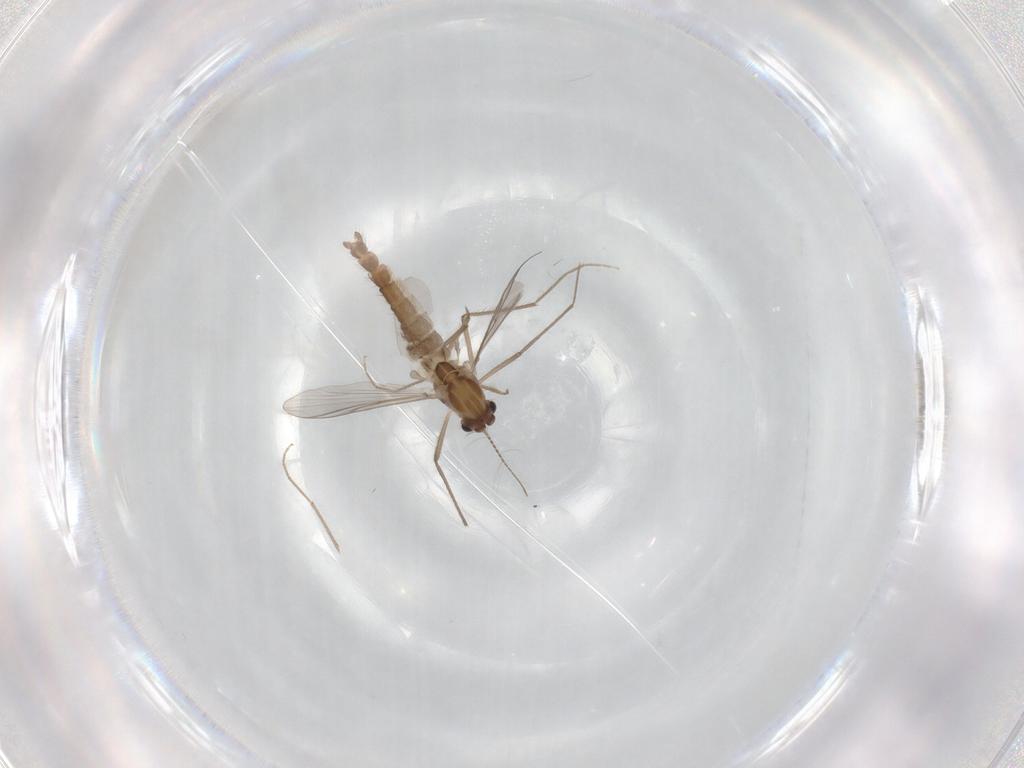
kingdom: Animalia
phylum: Arthropoda
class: Insecta
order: Diptera
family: Chironomidae
